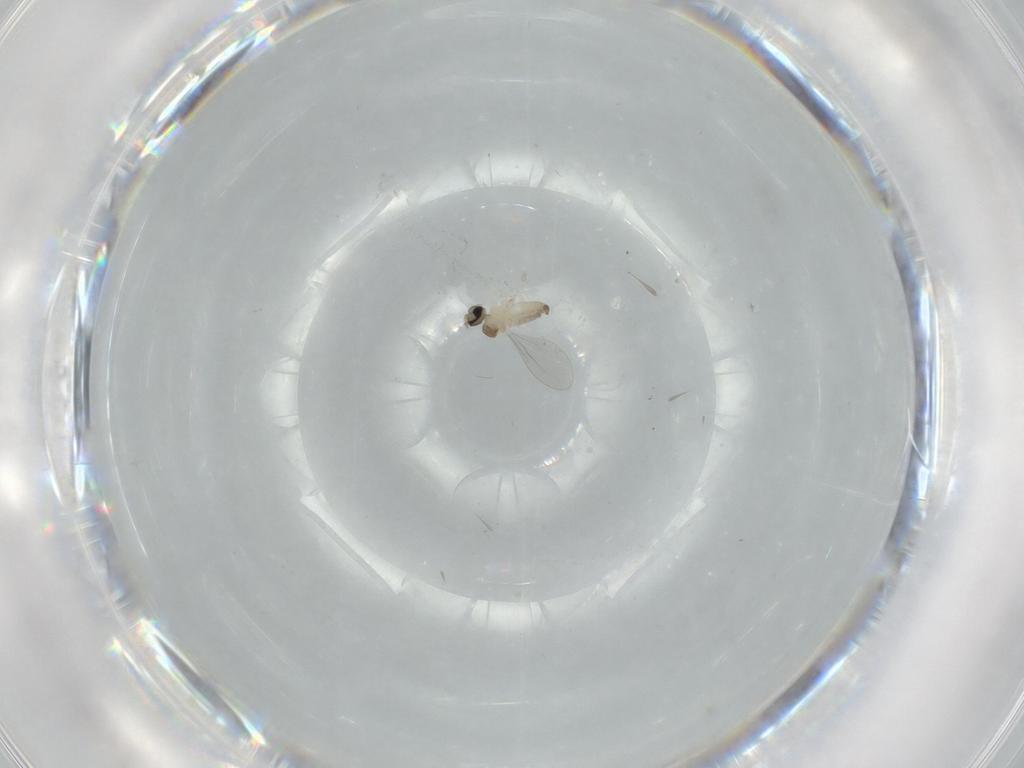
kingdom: Animalia
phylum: Arthropoda
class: Insecta
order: Diptera
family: Cecidomyiidae
